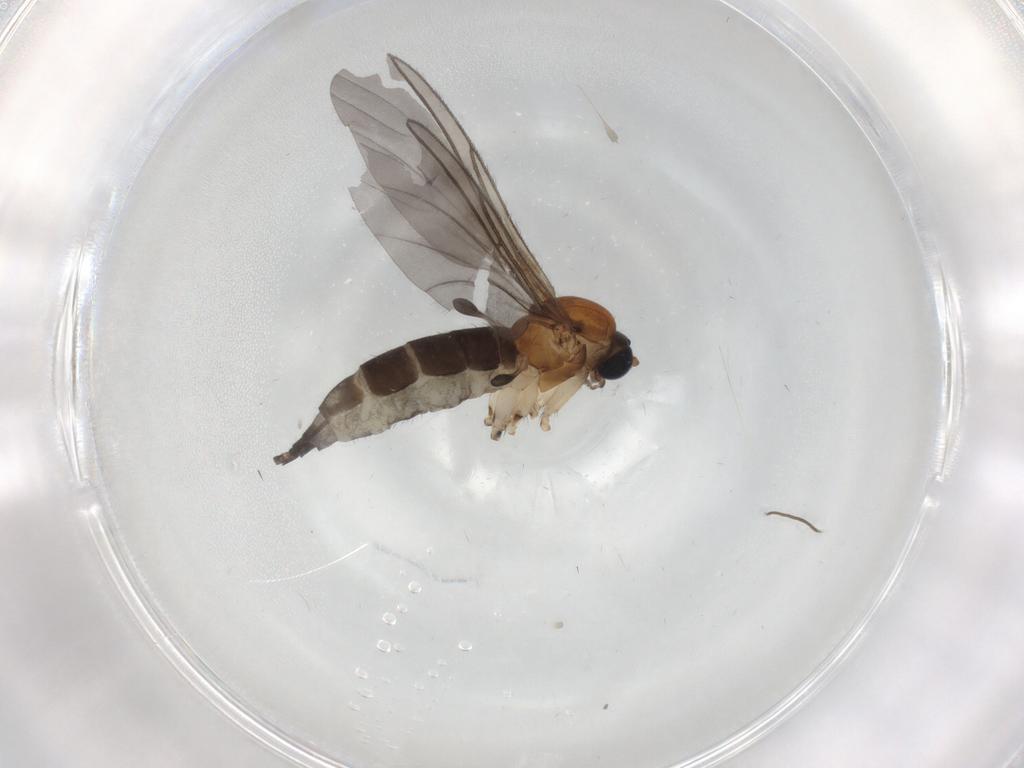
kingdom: Animalia
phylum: Arthropoda
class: Insecta
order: Diptera
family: Sciaridae
